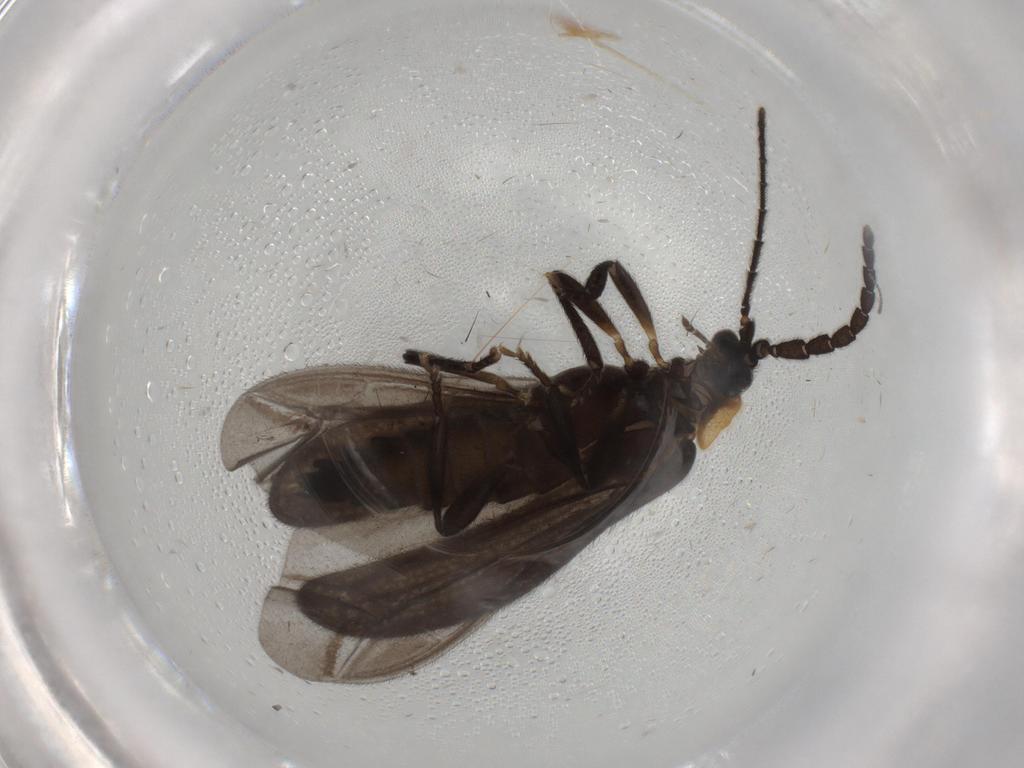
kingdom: Animalia
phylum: Arthropoda
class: Insecta
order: Coleoptera
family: Lycidae
